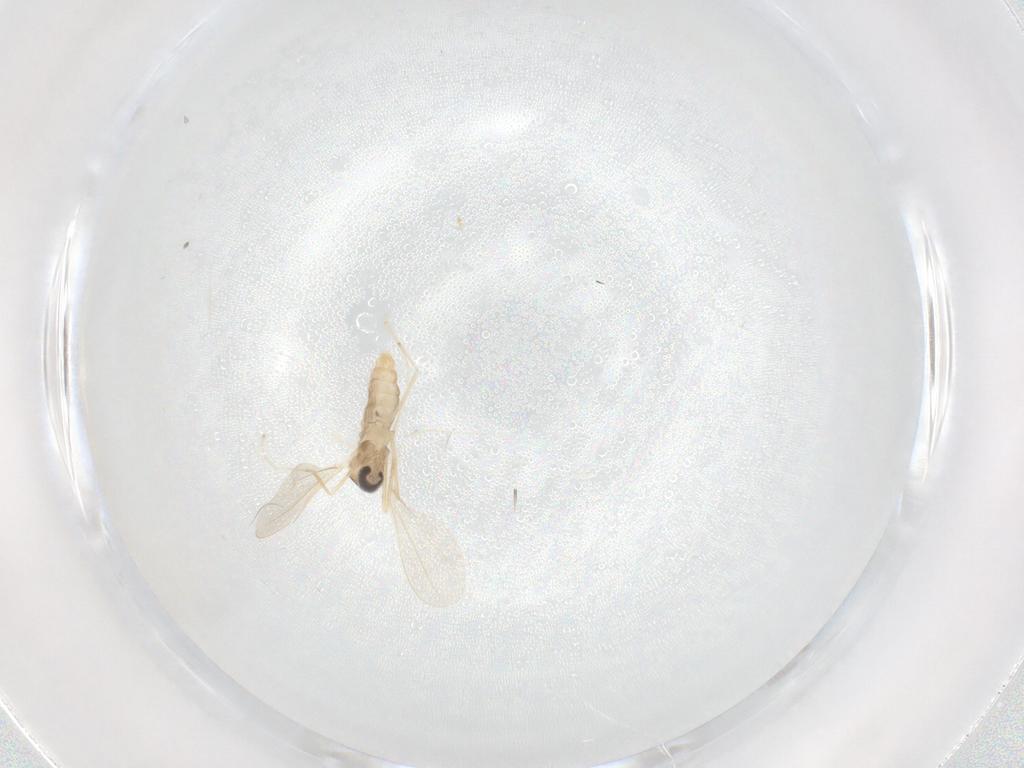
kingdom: Animalia
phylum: Arthropoda
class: Insecta
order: Diptera
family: Cecidomyiidae
